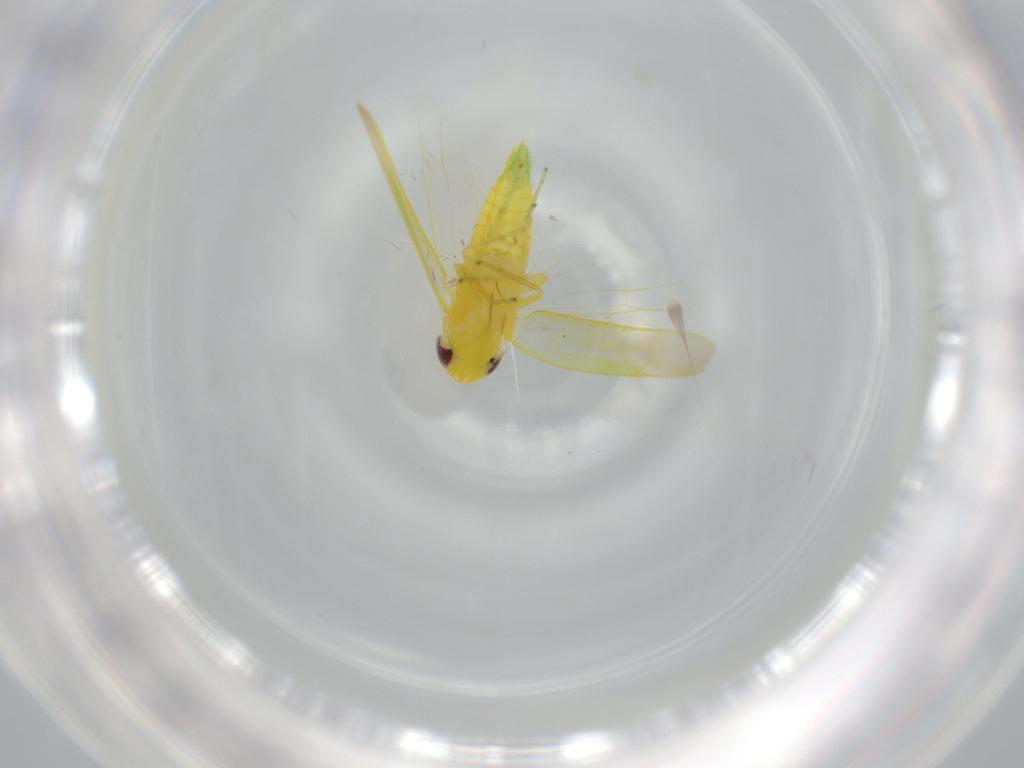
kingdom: Animalia
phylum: Arthropoda
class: Insecta
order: Hemiptera
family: Cicadellidae
